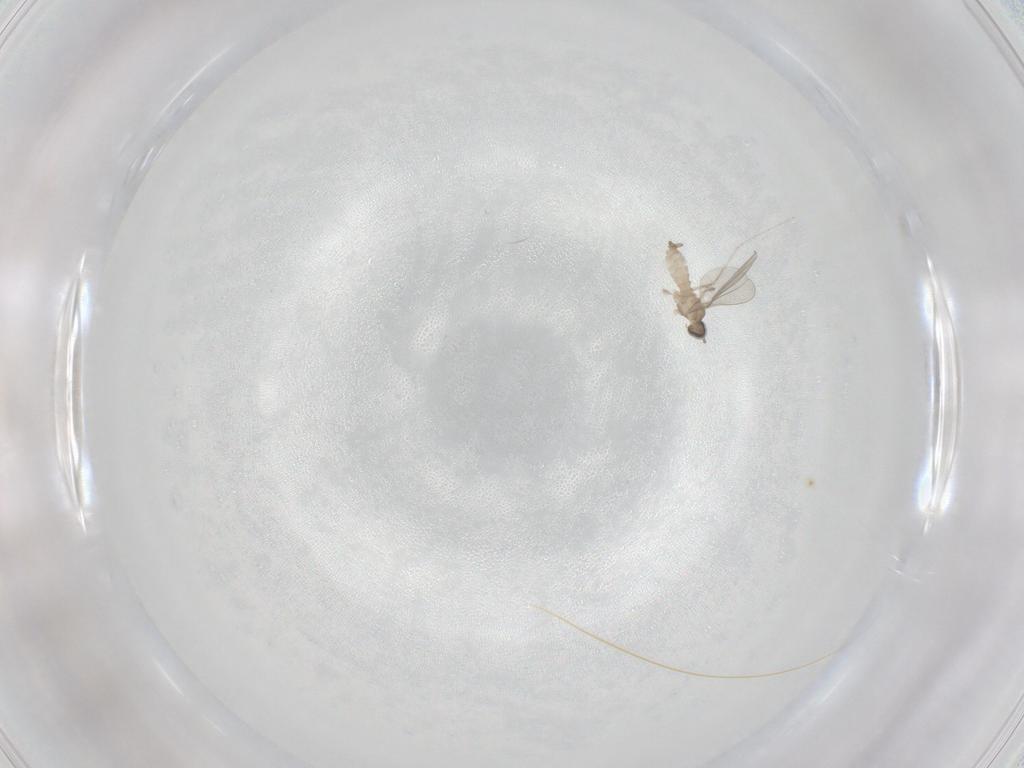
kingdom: Animalia
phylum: Arthropoda
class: Insecta
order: Diptera
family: Cecidomyiidae
